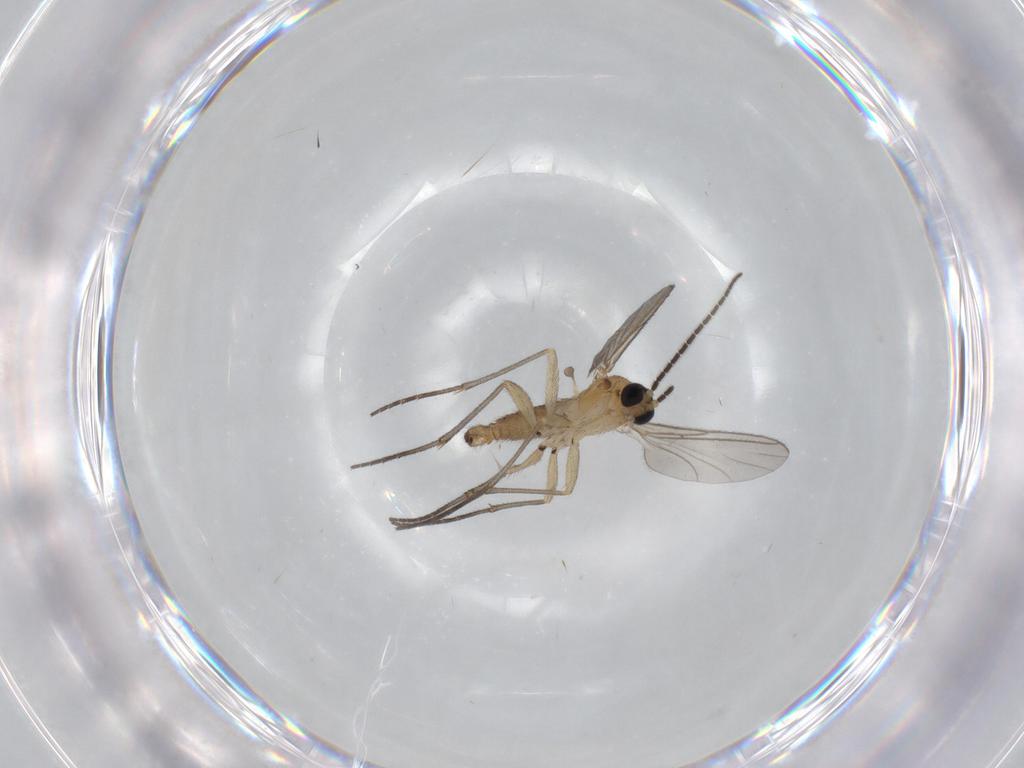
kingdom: Animalia
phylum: Arthropoda
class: Insecta
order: Diptera
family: Sciaridae
